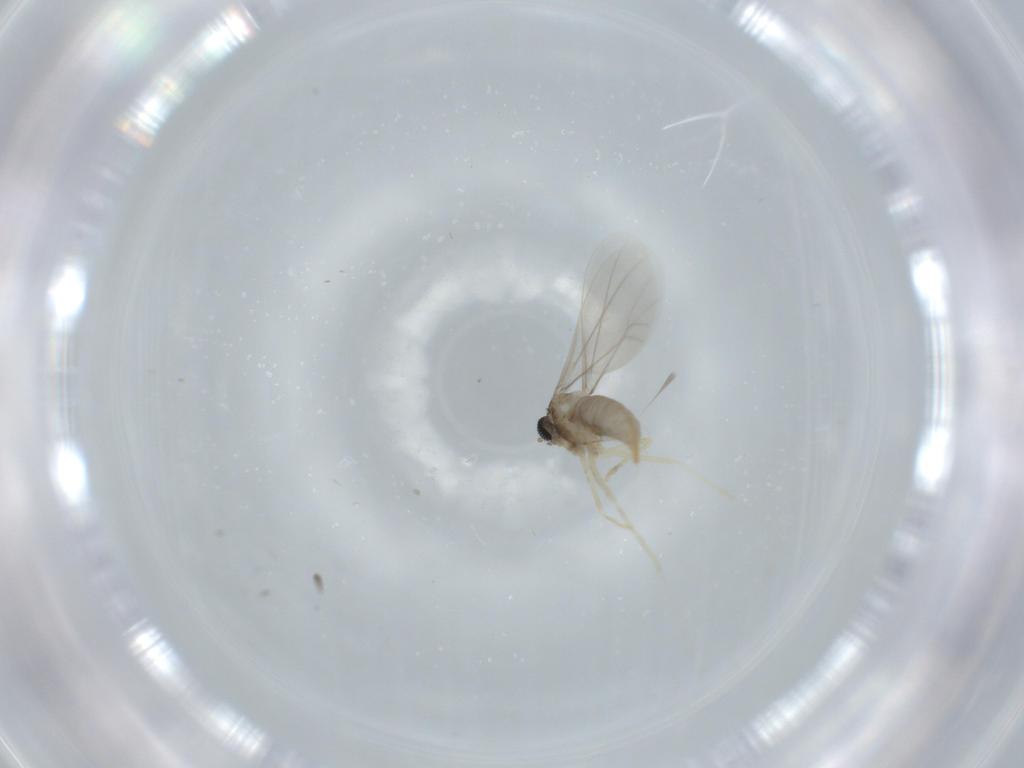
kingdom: Animalia
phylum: Arthropoda
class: Insecta
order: Diptera
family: Cecidomyiidae
